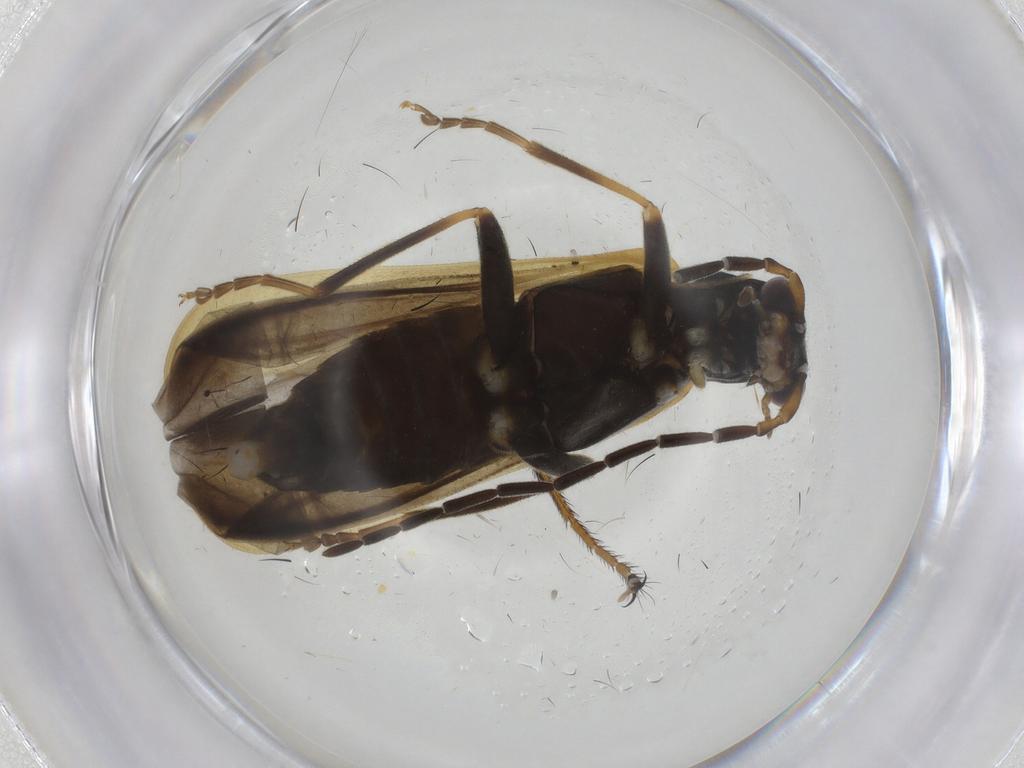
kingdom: Animalia
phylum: Arthropoda
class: Insecta
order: Coleoptera
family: Cantharidae
